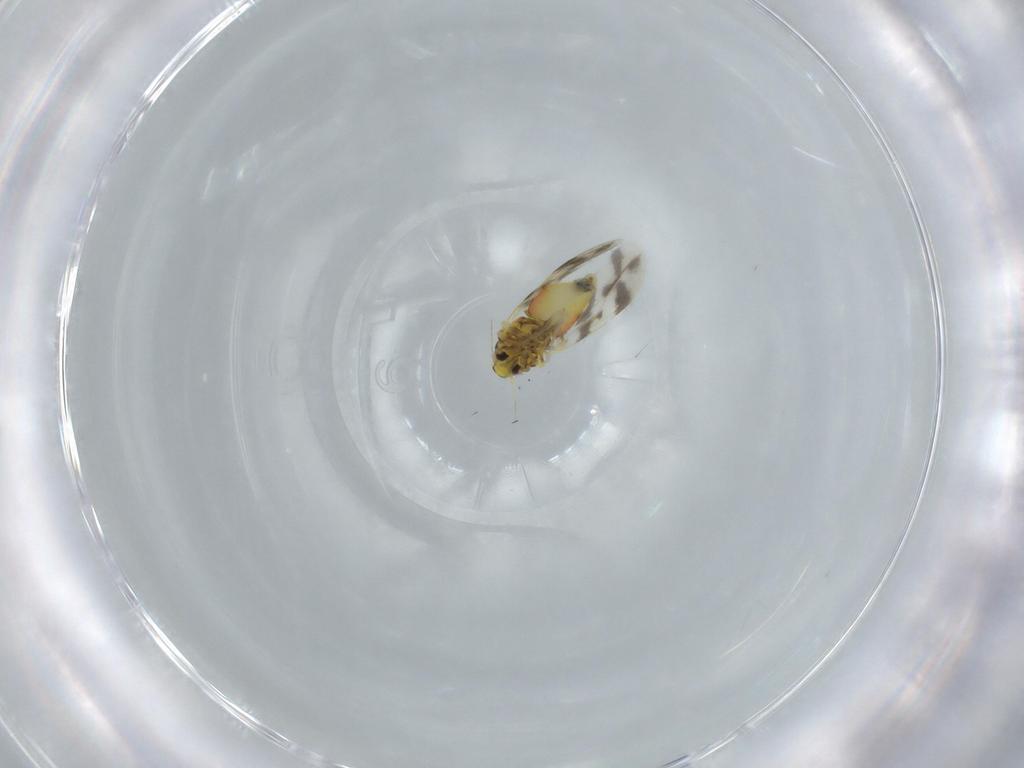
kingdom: Animalia
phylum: Arthropoda
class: Insecta
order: Hemiptera
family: Aleyrodidae
